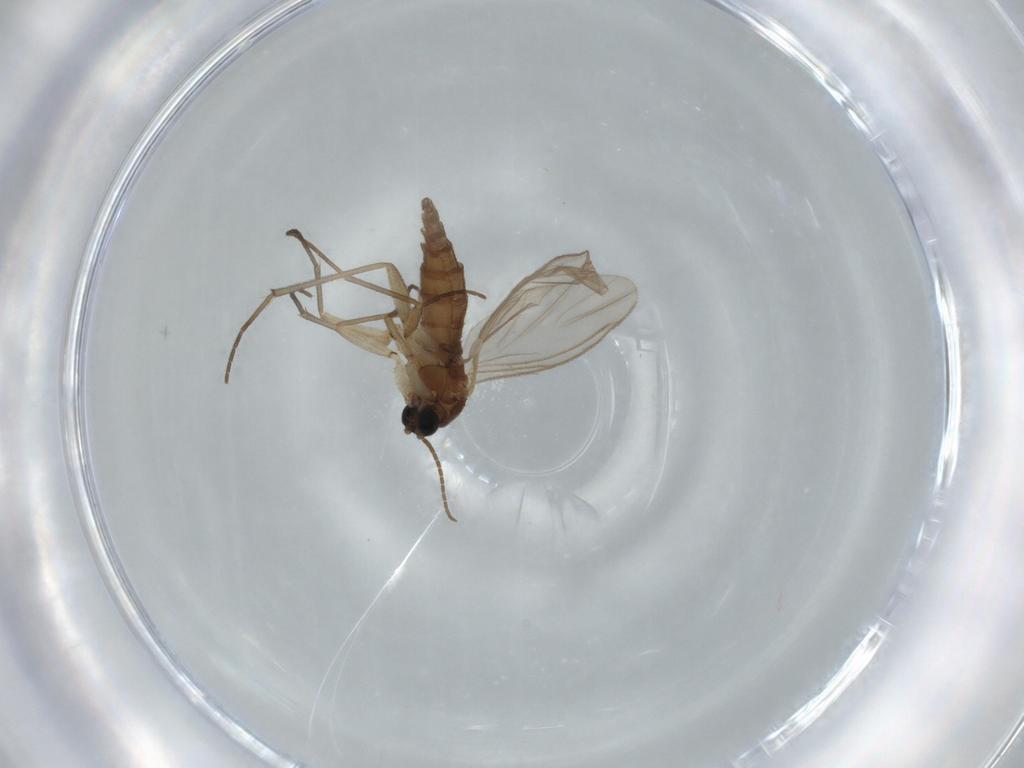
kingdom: Animalia
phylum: Arthropoda
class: Insecta
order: Diptera
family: Sciaridae
